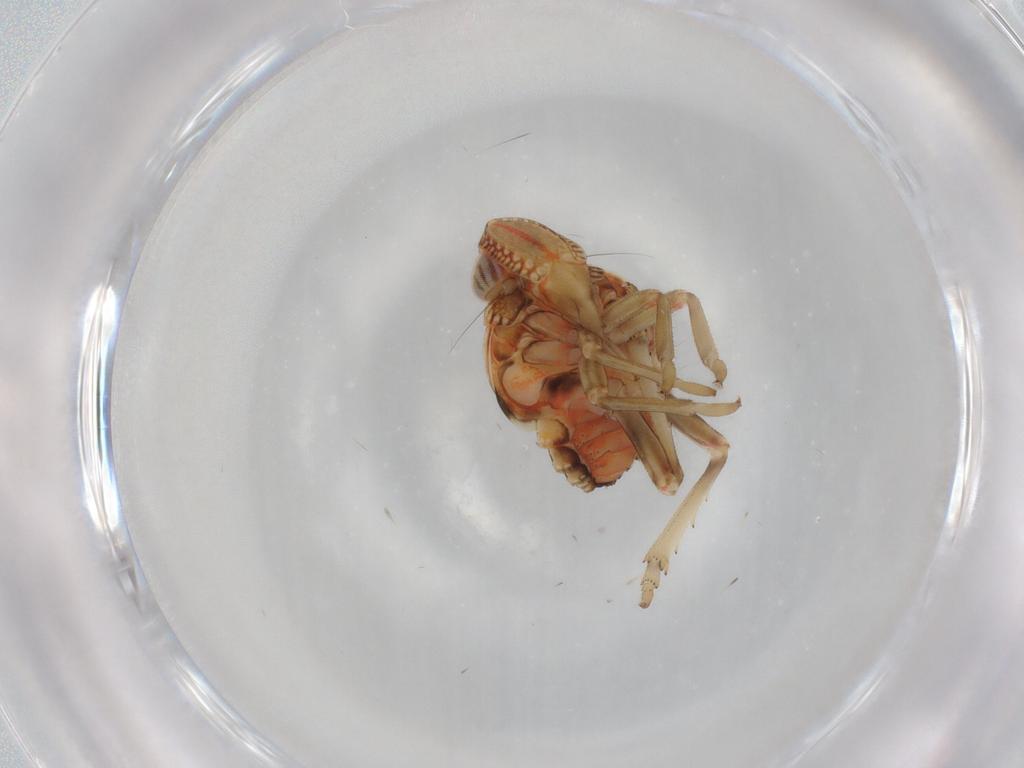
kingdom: Animalia
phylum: Arthropoda
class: Insecta
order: Hemiptera
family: Tropiduchidae
